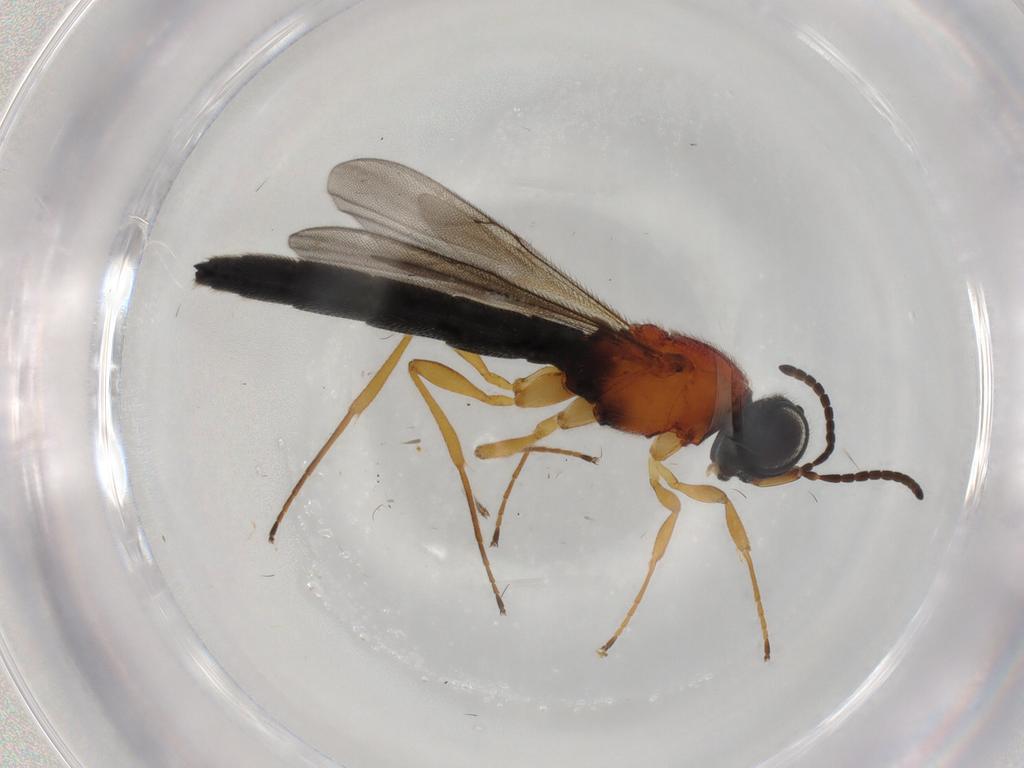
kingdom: Animalia
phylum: Arthropoda
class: Insecta
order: Hymenoptera
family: Scelionidae
